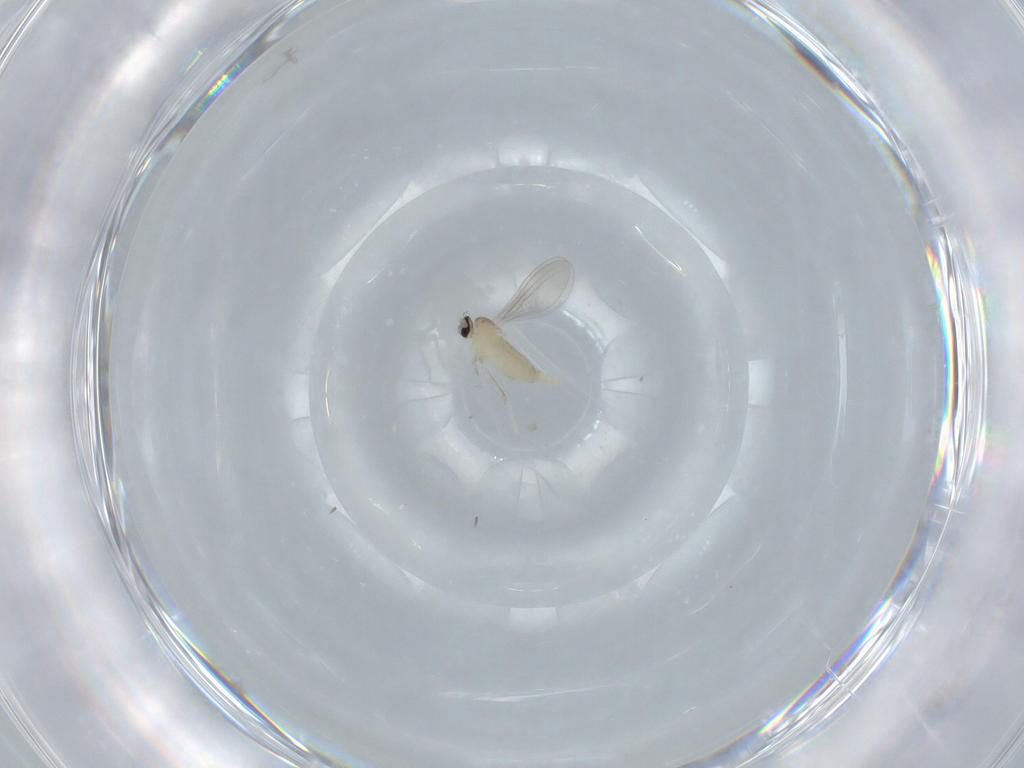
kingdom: Animalia
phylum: Arthropoda
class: Insecta
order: Diptera
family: Cecidomyiidae
